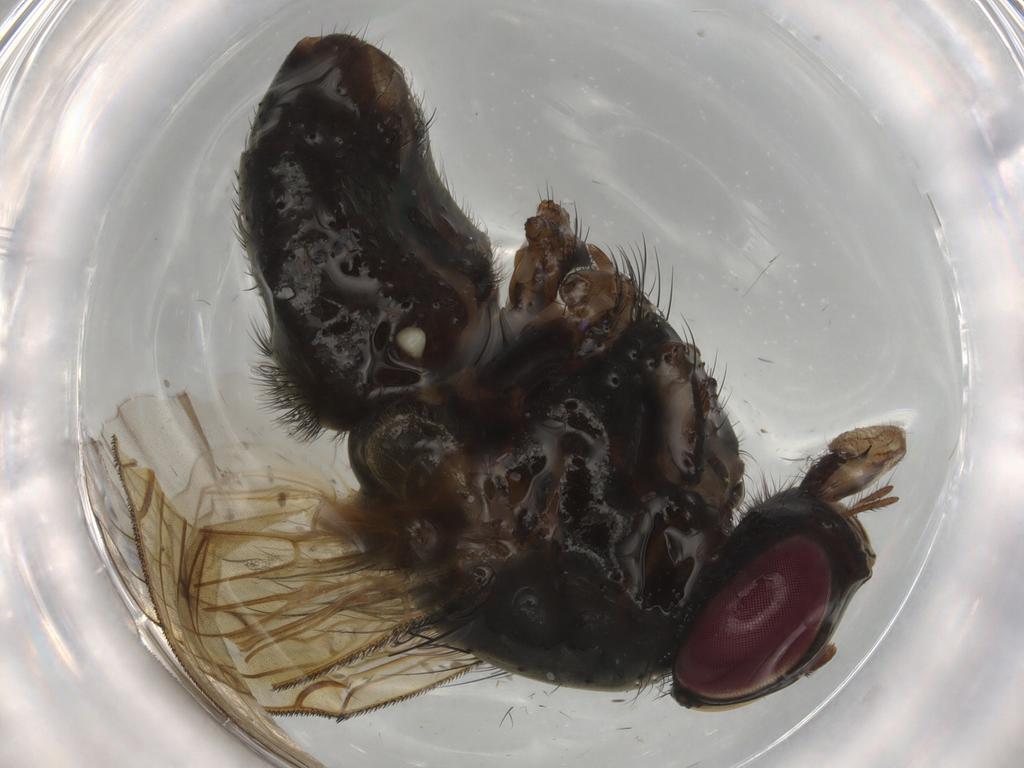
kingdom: Animalia
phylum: Arthropoda
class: Insecta
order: Diptera
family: Muscidae
